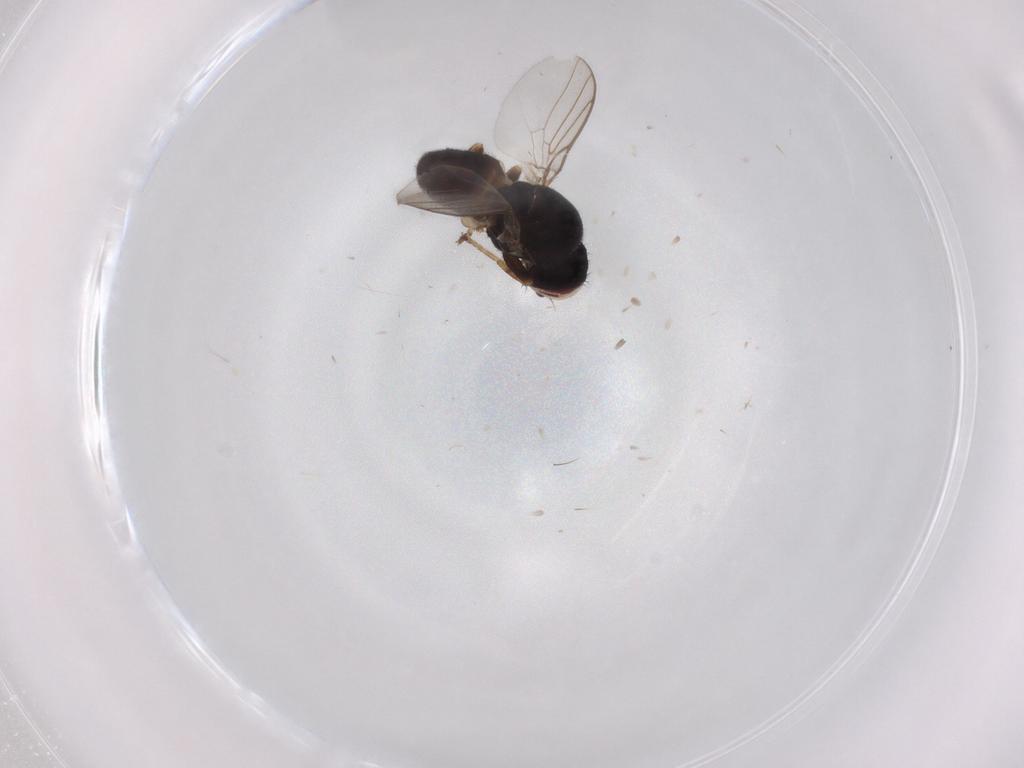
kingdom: Animalia
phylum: Arthropoda
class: Insecta
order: Diptera
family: Chloropidae
